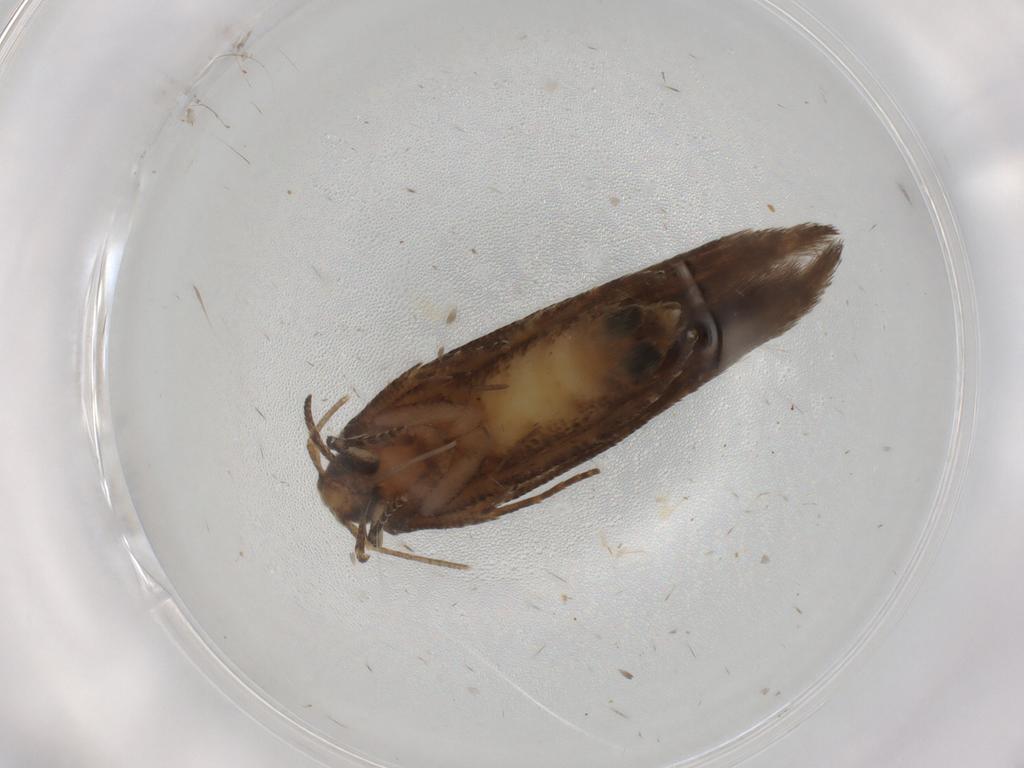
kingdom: Animalia
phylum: Arthropoda
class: Insecta
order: Lepidoptera
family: Cosmopterigidae
